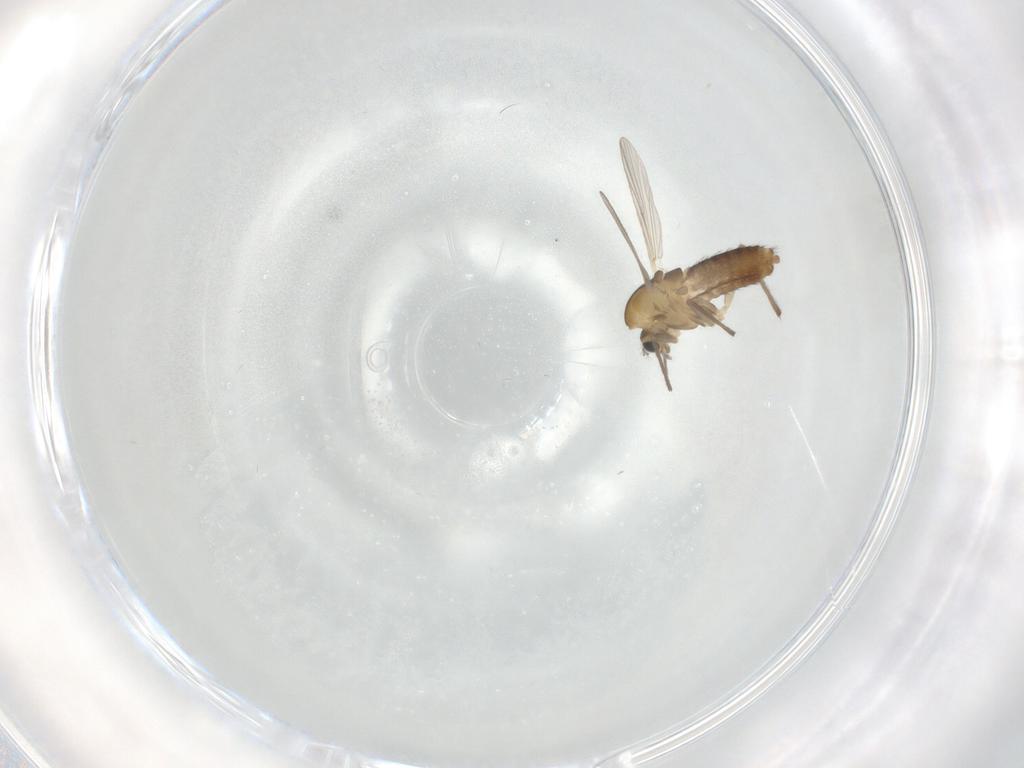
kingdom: Animalia
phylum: Arthropoda
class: Insecta
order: Diptera
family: Chironomidae
